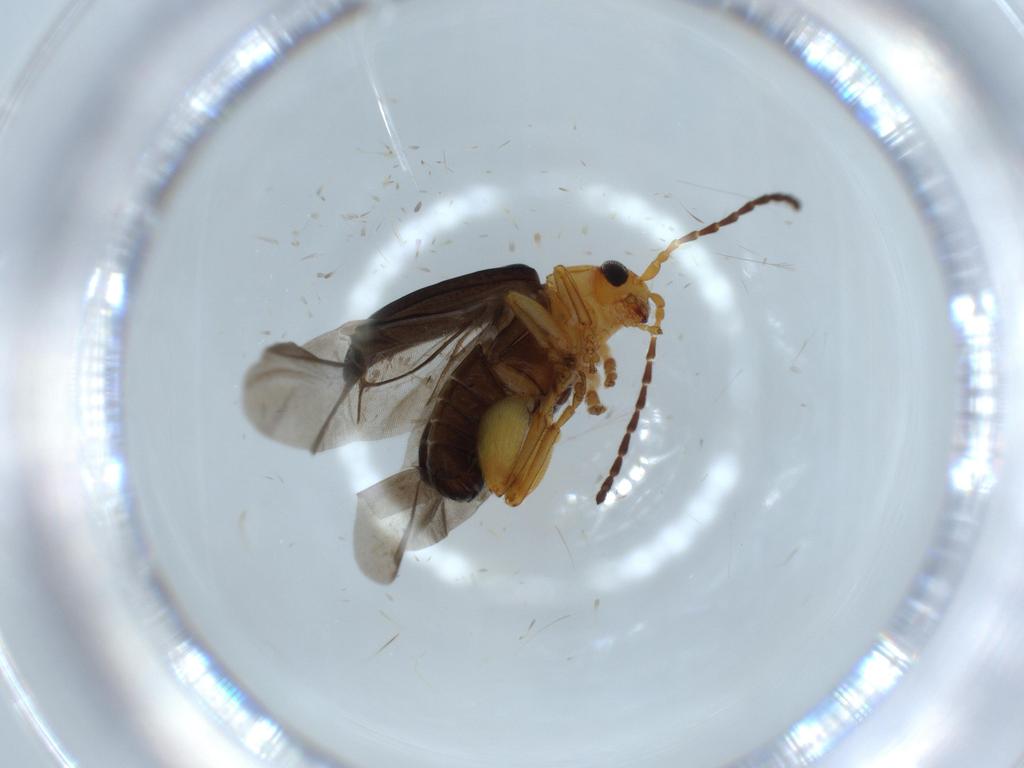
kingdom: Animalia
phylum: Arthropoda
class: Insecta
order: Coleoptera
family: Chrysomelidae
